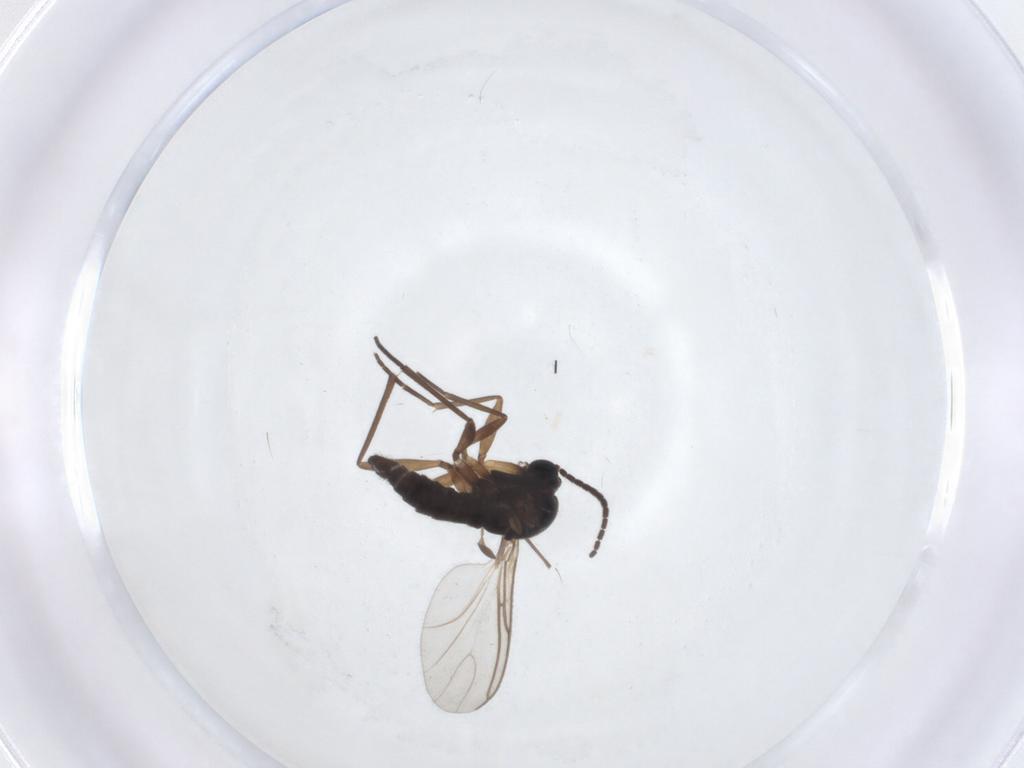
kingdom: Animalia
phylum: Arthropoda
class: Insecta
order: Diptera
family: Sciaridae
